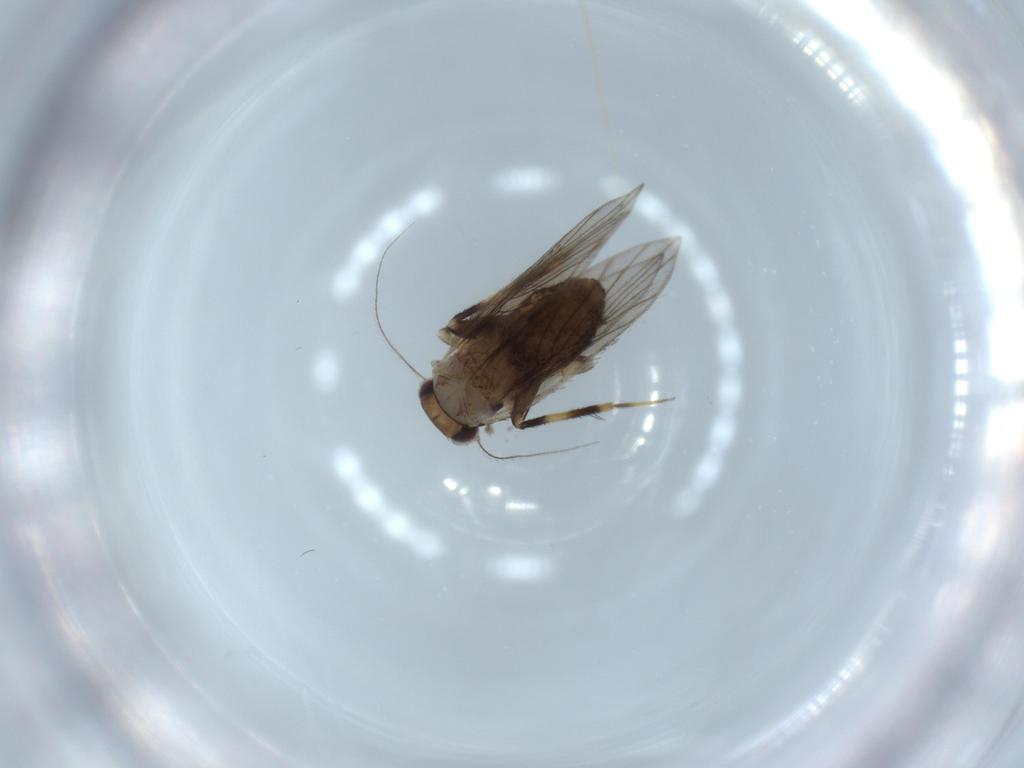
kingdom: Animalia
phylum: Arthropoda
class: Insecta
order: Psocodea
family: Lepidopsocidae
